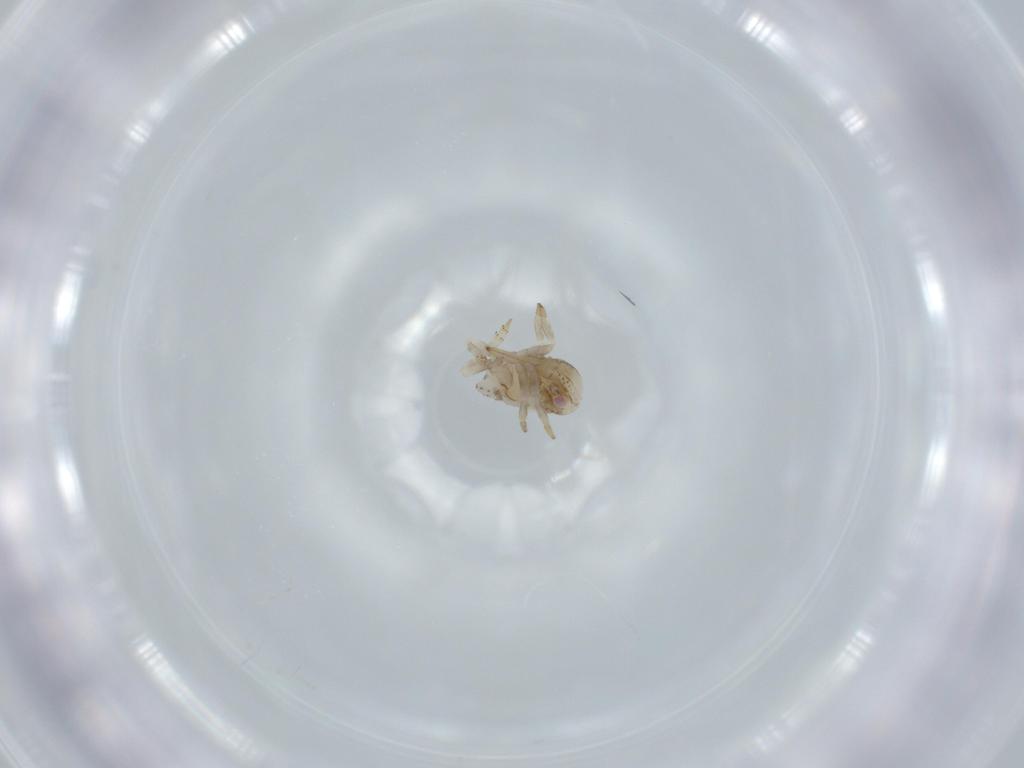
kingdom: Animalia
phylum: Arthropoda
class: Insecta
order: Hemiptera
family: Acanaloniidae
